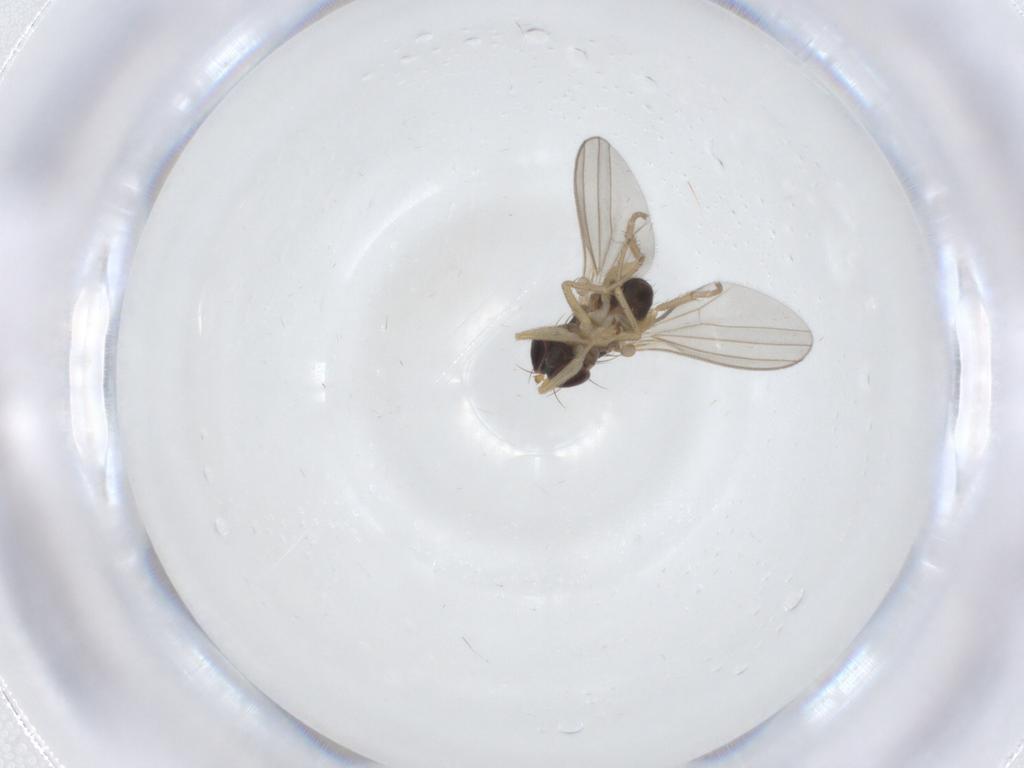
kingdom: Animalia
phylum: Arthropoda
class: Insecta
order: Diptera
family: Dolichopodidae
